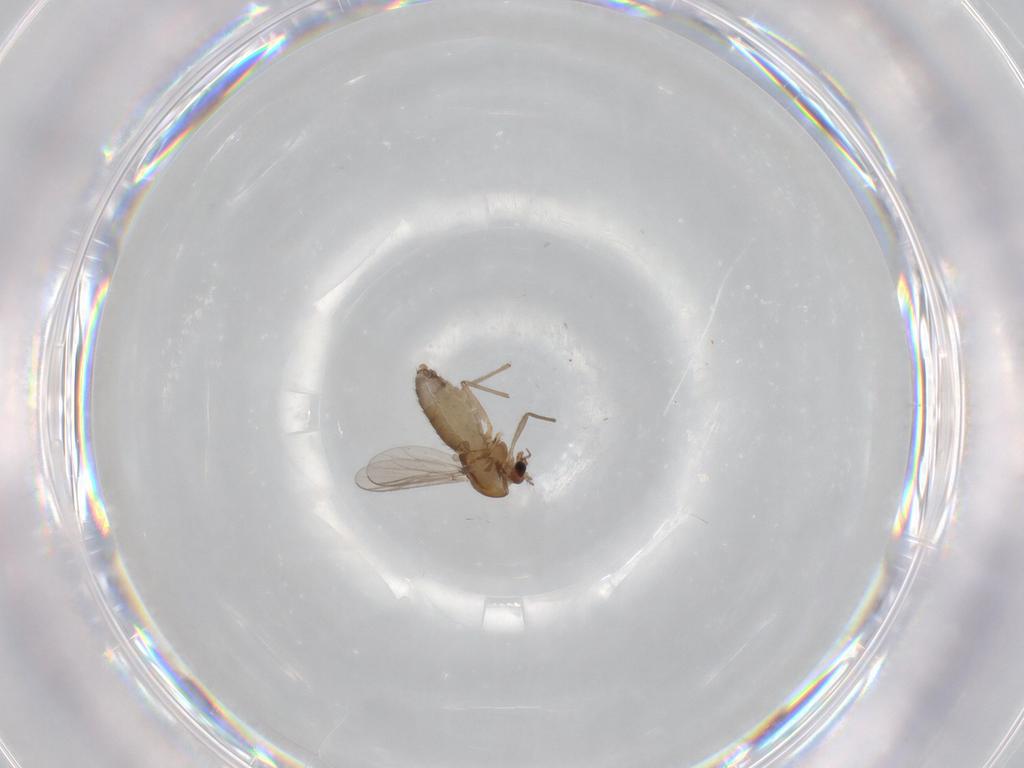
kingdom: Animalia
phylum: Arthropoda
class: Insecta
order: Diptera
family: Chironomidae
